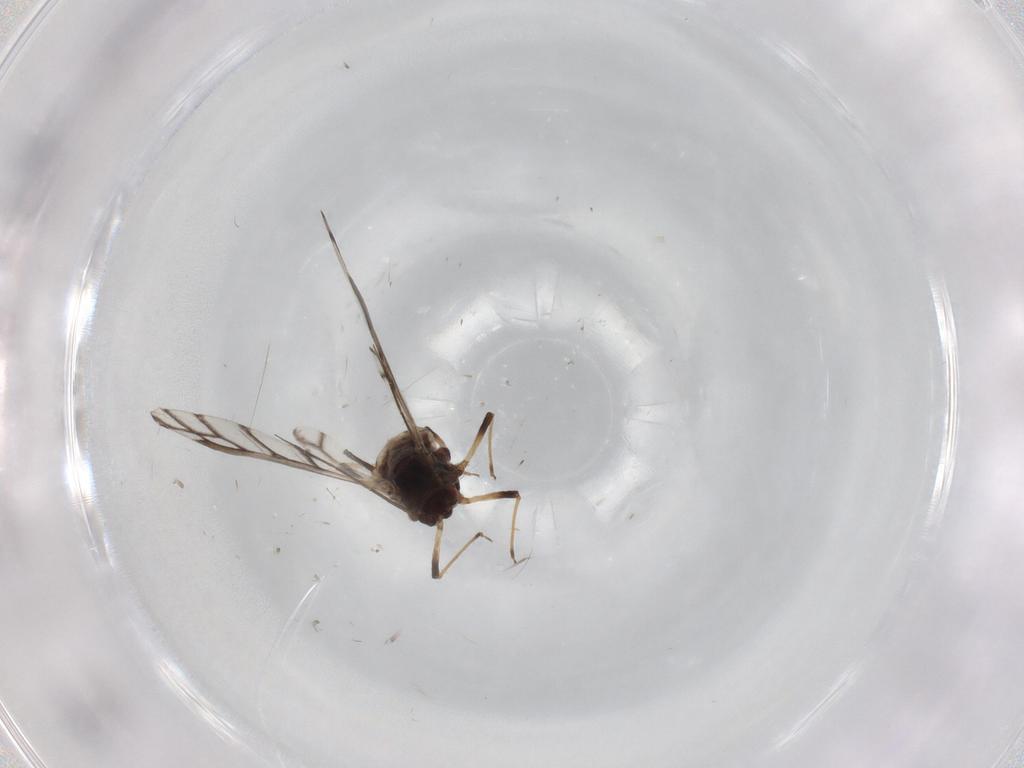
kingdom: Animalia
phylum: Arthropoda
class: Insecta
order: Hemiptera
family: Aphididae
